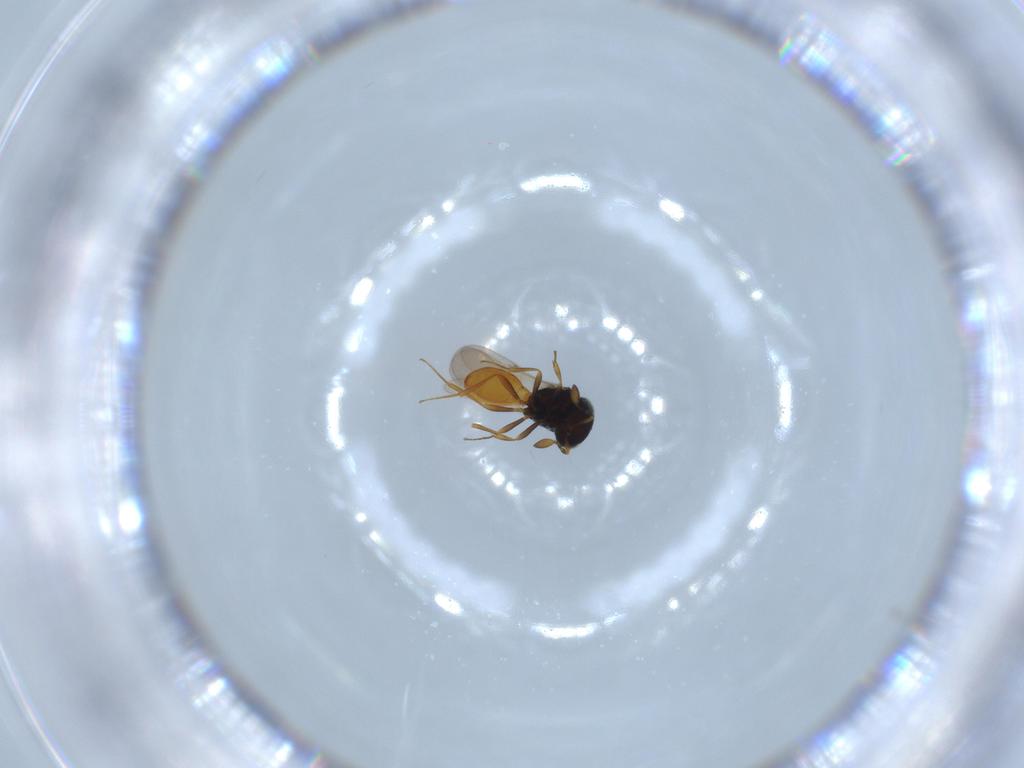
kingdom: Animalia
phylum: Arthropoda
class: Insecta
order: Hymenoptera
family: Scelionidae
